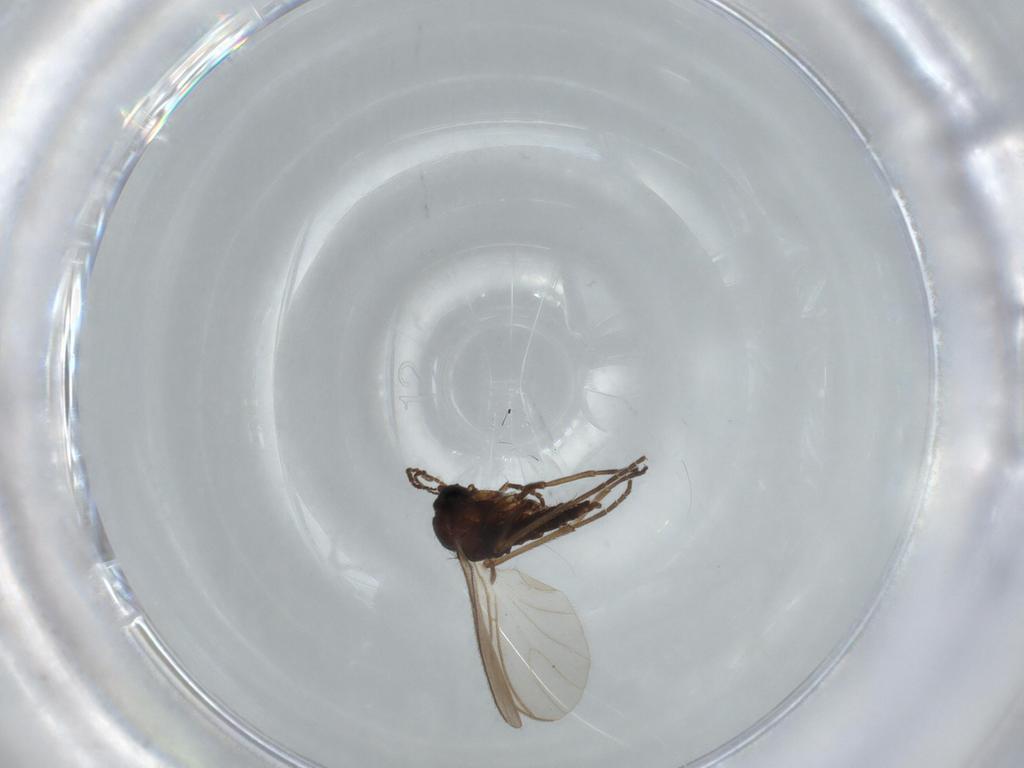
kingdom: Animalia
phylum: Arthropoda
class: Insecta
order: Diptera
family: Sciaridae
